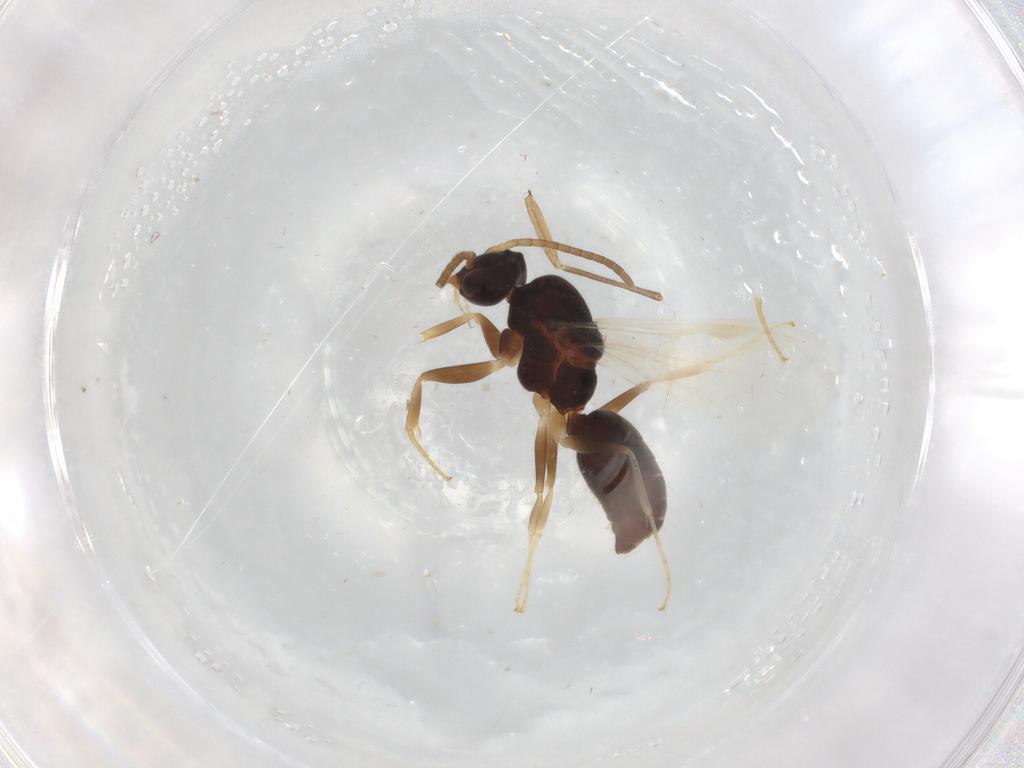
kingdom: Animalia
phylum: Arthropoda
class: Insecta
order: Hymenoptera
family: Formicidae
